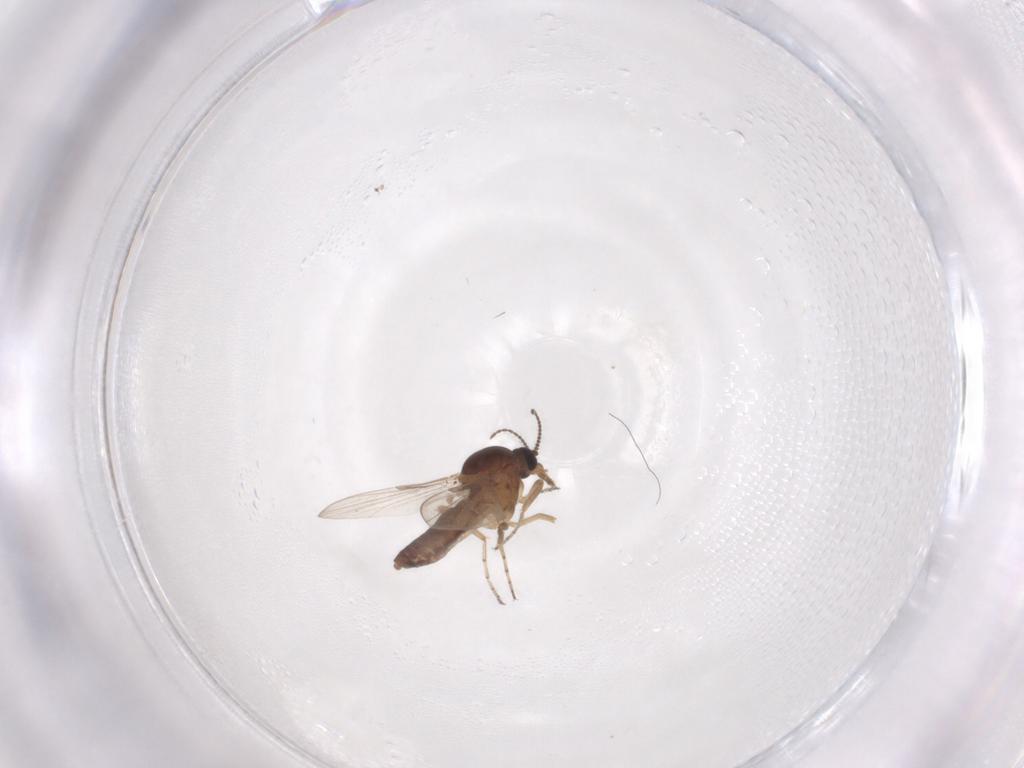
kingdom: Animalia
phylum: Arthropoda
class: Insecta
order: Diptera
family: Ceratopogonidae
